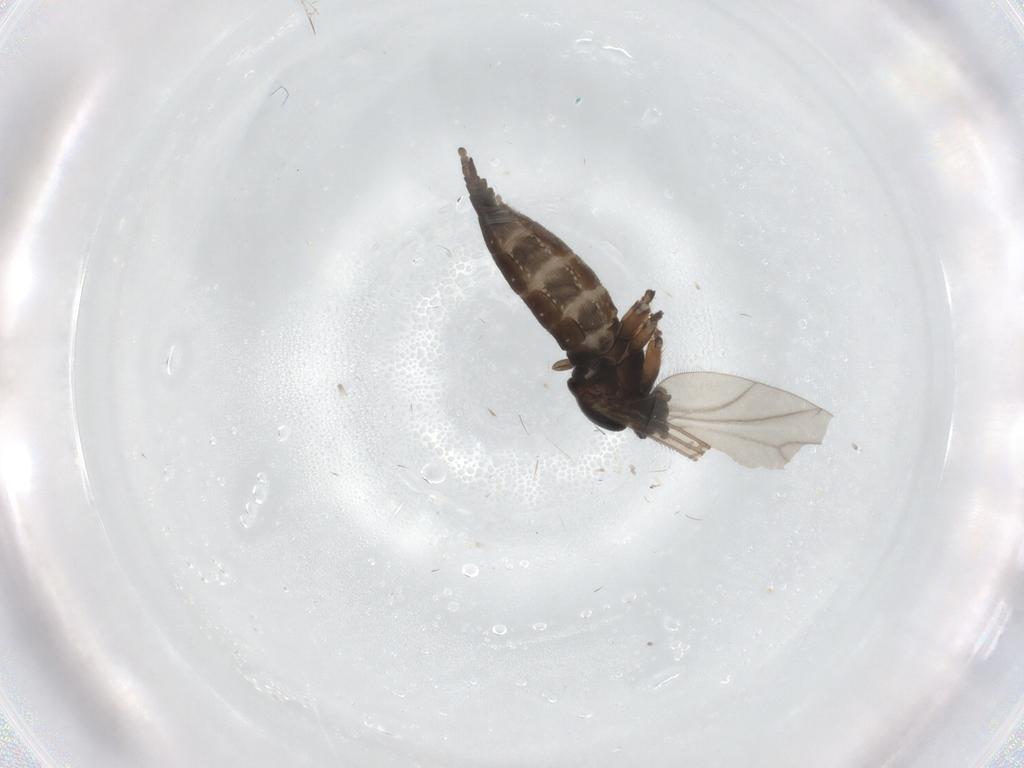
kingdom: Animalia
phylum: Arthropoda
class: Insecta
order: Diptera
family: Sciaridae
